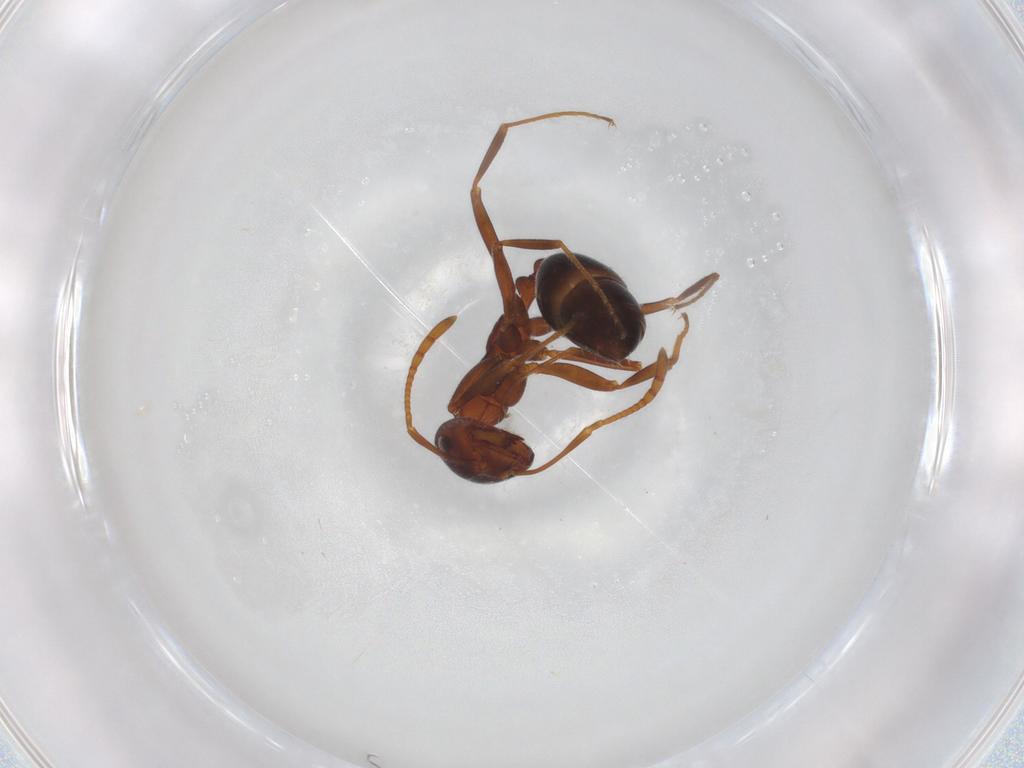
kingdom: Animalia
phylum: Arthropoda
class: Insecta
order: Hymenoptera
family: Formicidae
